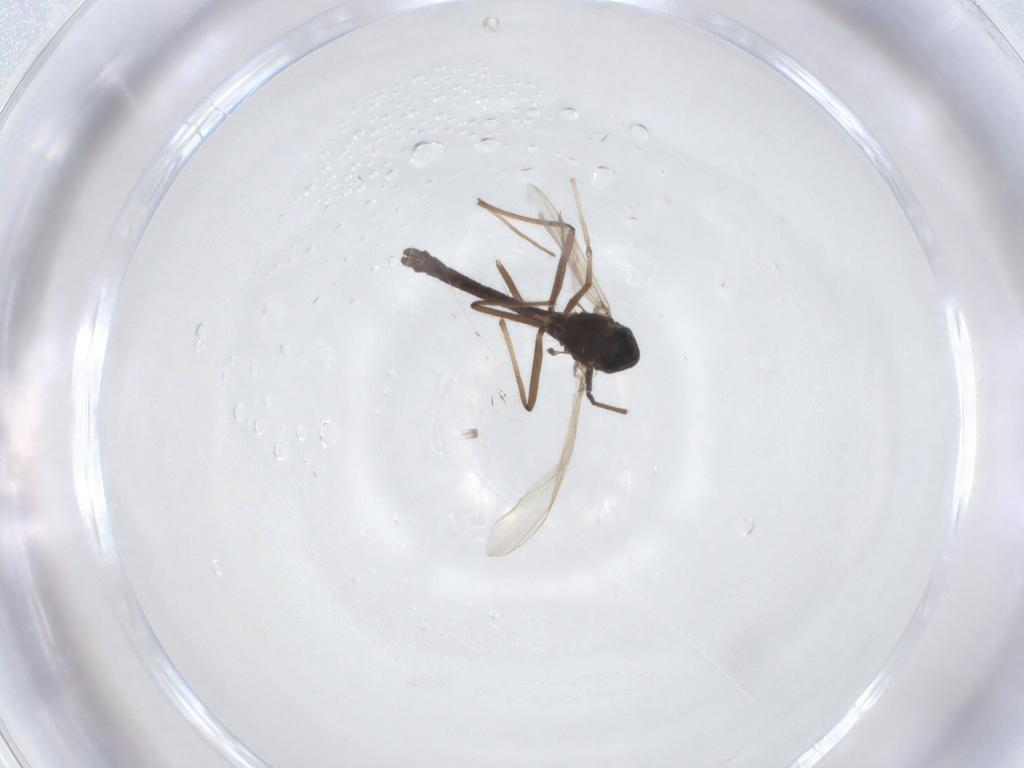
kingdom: Animalia
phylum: Arthropoda
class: Insecta
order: Diptera
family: Chironomidae
